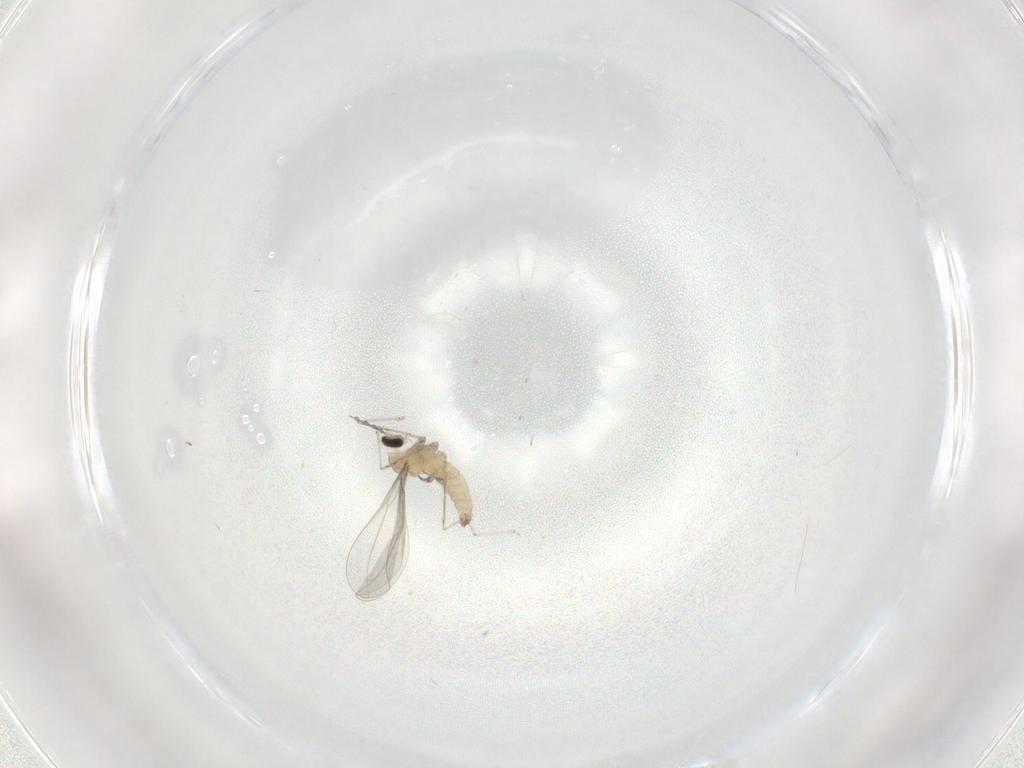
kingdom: Animalia
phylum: Arthropoda
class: Insecta
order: Diptera
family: Cecidomyiidae
